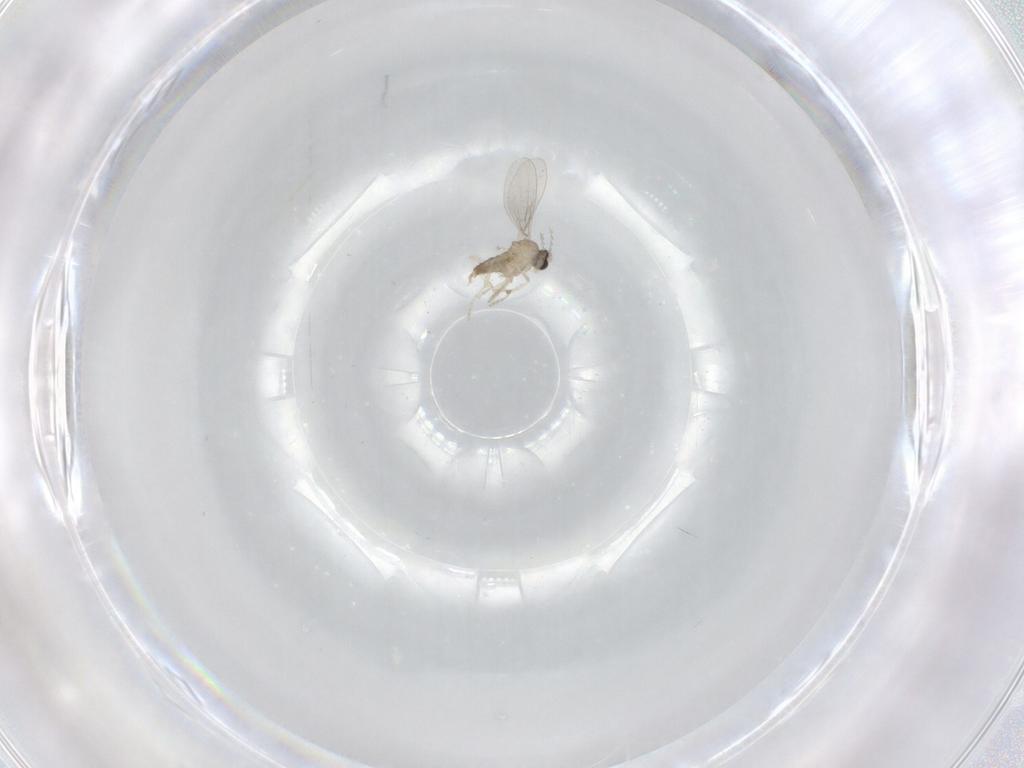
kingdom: Animalia
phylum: Arthropoda
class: Insecta
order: Diptera
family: Cecidomyiidae
